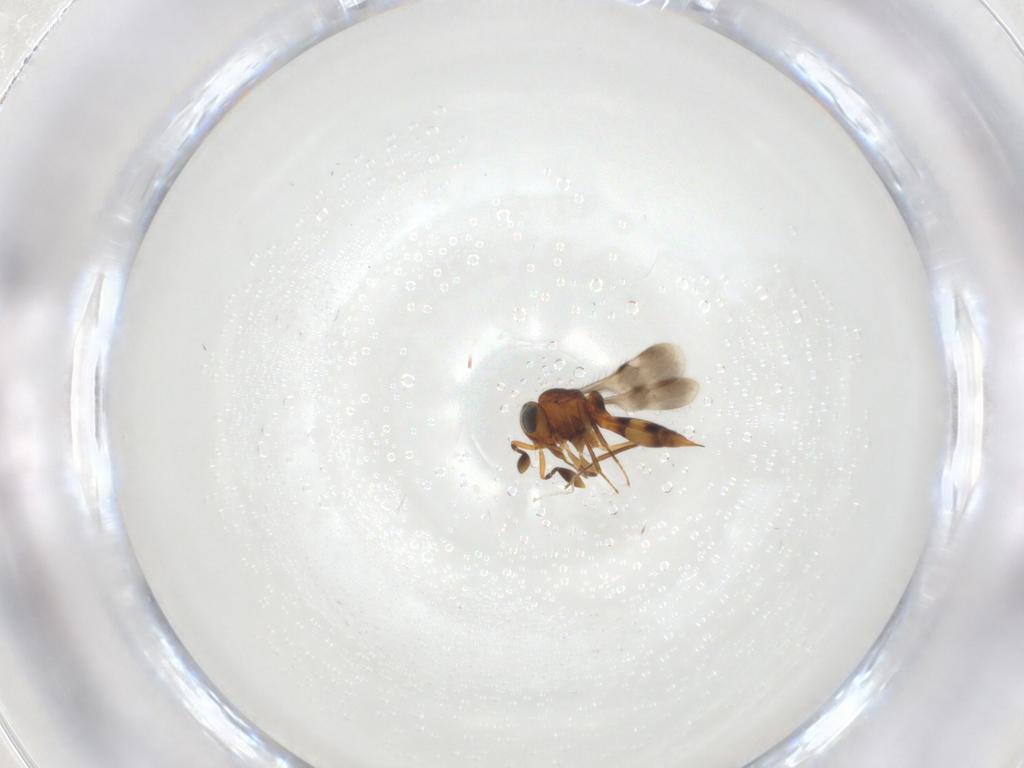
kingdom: Animalia
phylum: Arthropoda
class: Insecta
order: Hymenoptera
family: Scelionidae
